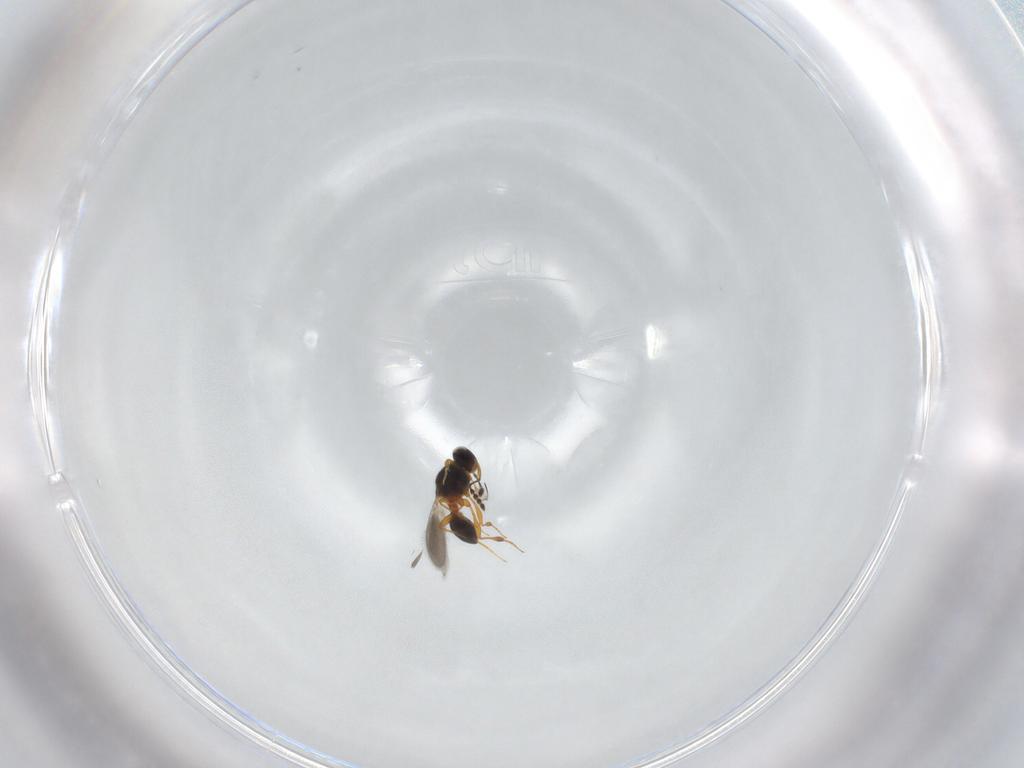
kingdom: Animalia
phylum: Arthropoda
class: Insecta
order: Hymenoptera
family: Platygastridae
